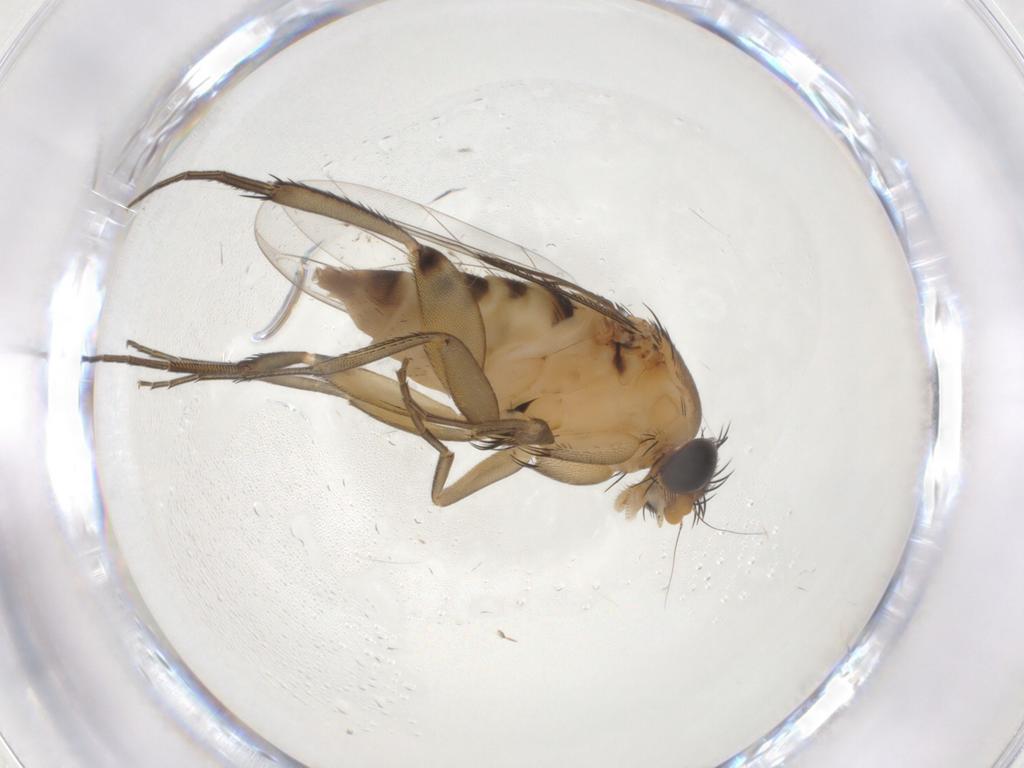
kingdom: Animalia
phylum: Arthropoda
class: Insecta
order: Diptera
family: Phoridae
